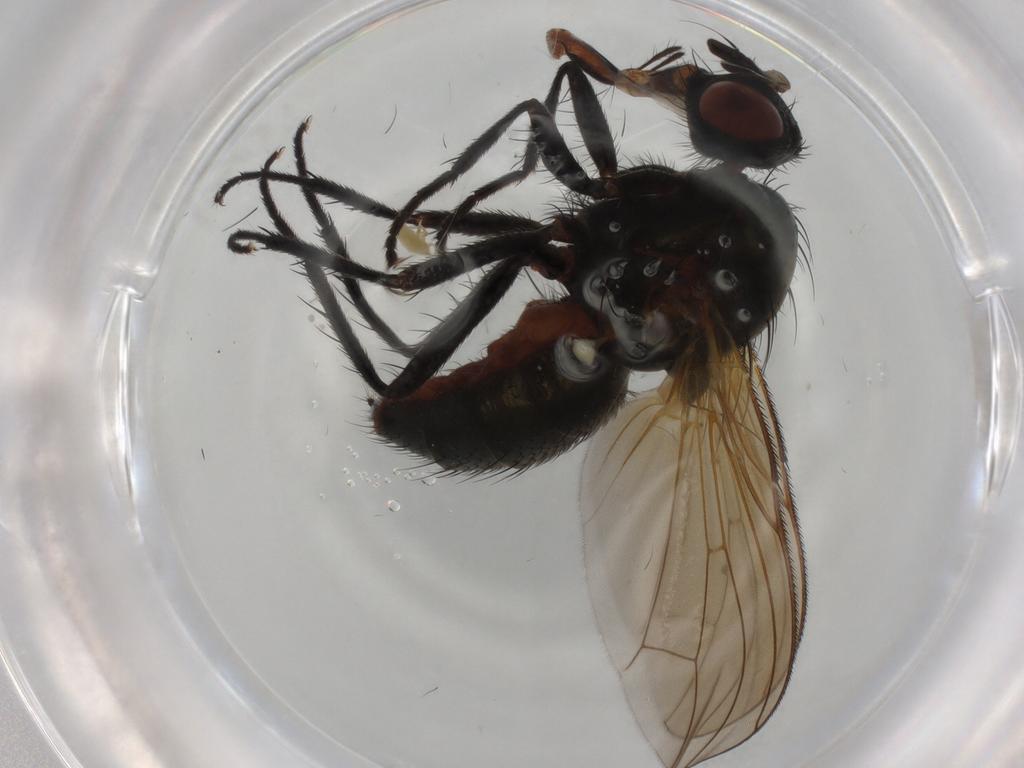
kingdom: Animalia
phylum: Arthropoda
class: Insecta
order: Diptera
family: Anthomyiidae
